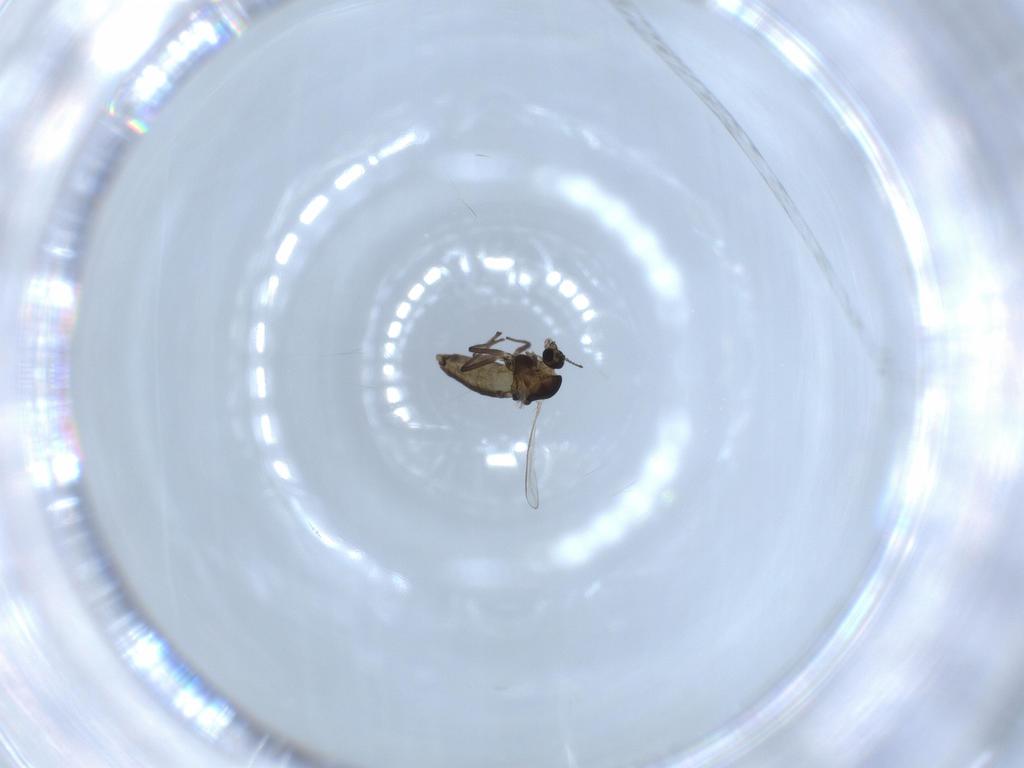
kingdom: Animalia
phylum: Arthropoda
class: Insecta
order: Diptera
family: Chironomidae
